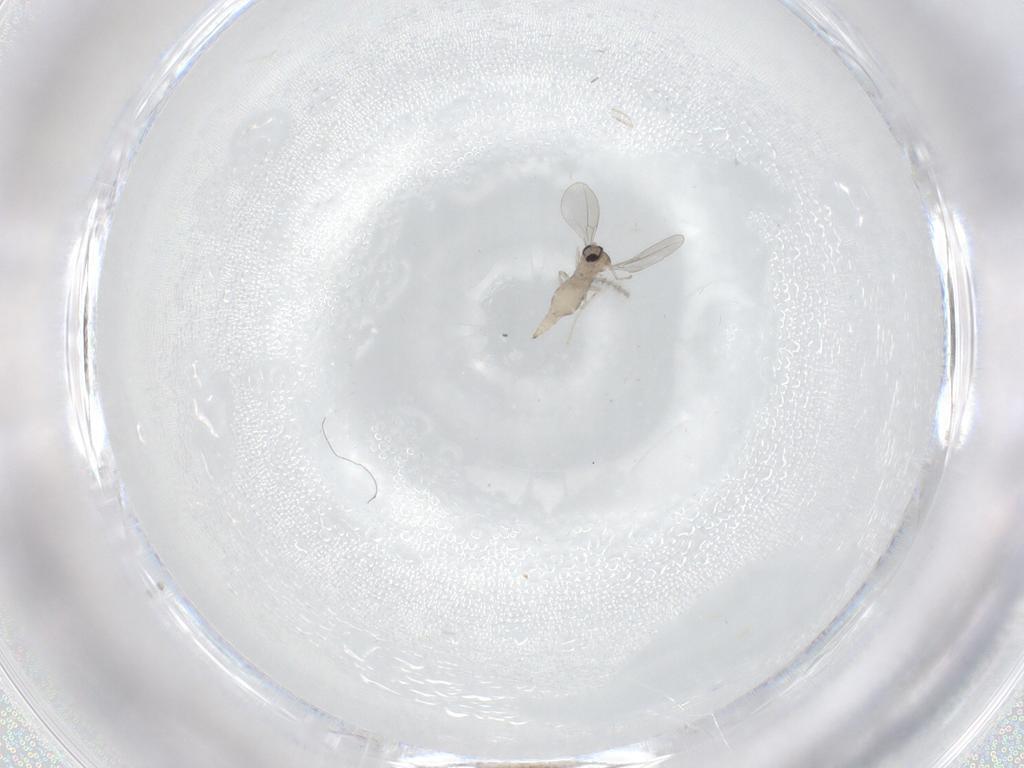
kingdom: Animalia
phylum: Arthropoda
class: Insecta
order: Diptera
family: Cecidomyiidae
